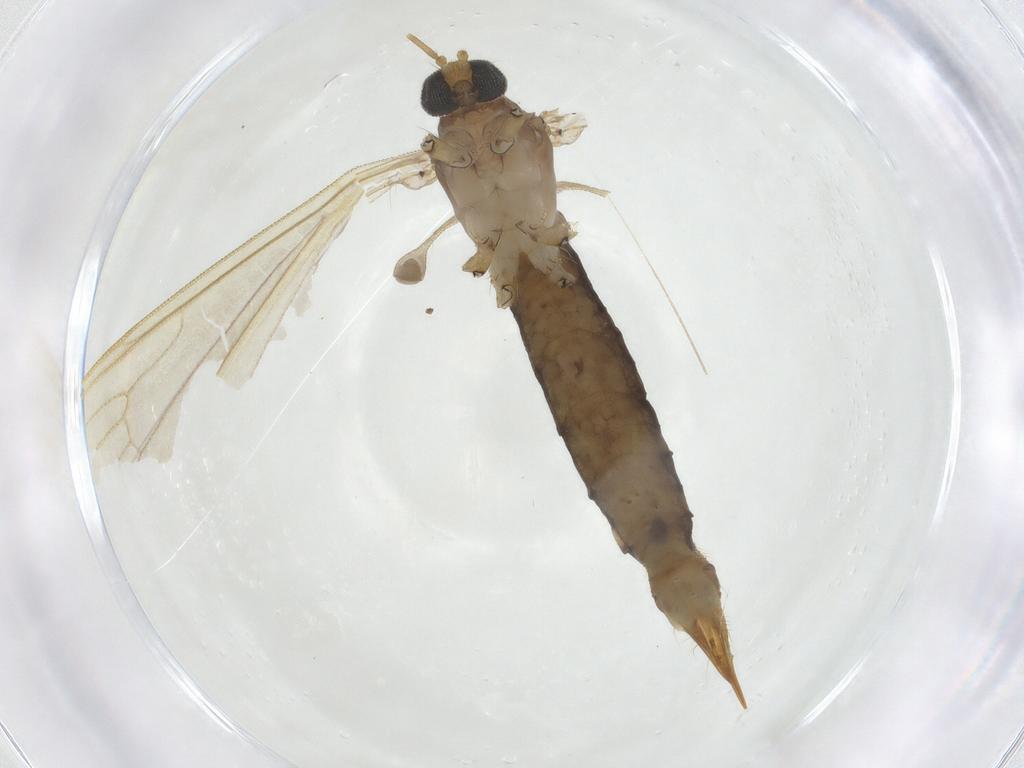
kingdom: Animalia
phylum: Arthropoda
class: Insecta
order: Diptera
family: Limoniidae
